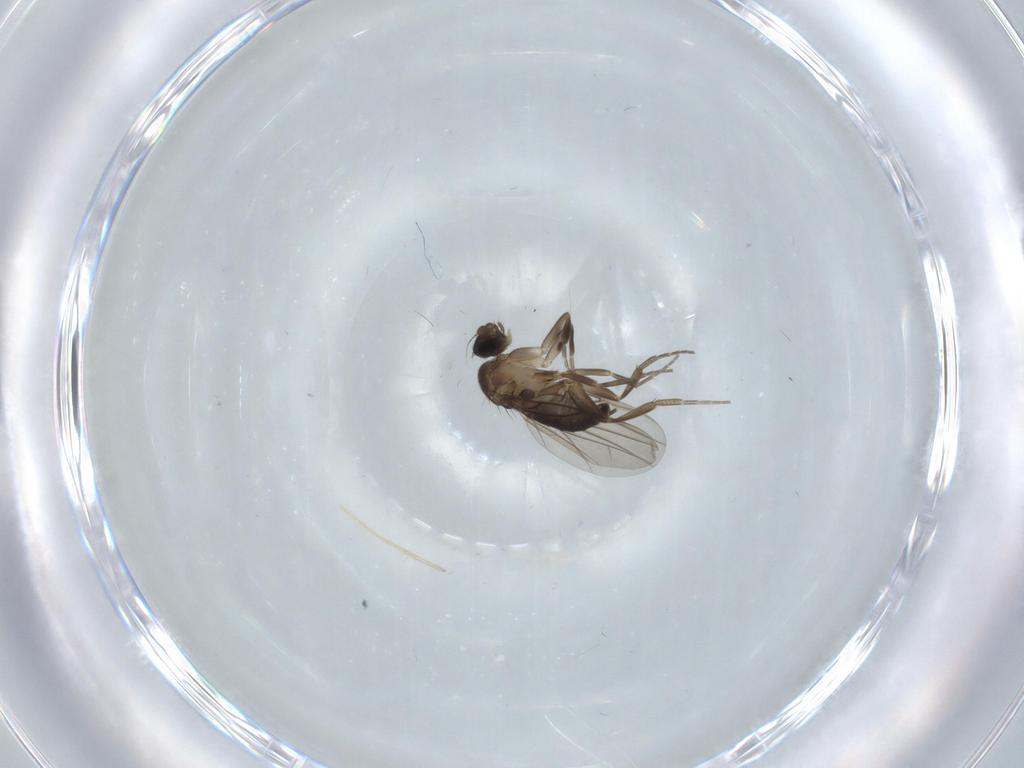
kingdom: Animalia
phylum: Arthropoda
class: Insecta
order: Diptera
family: Phoridae
